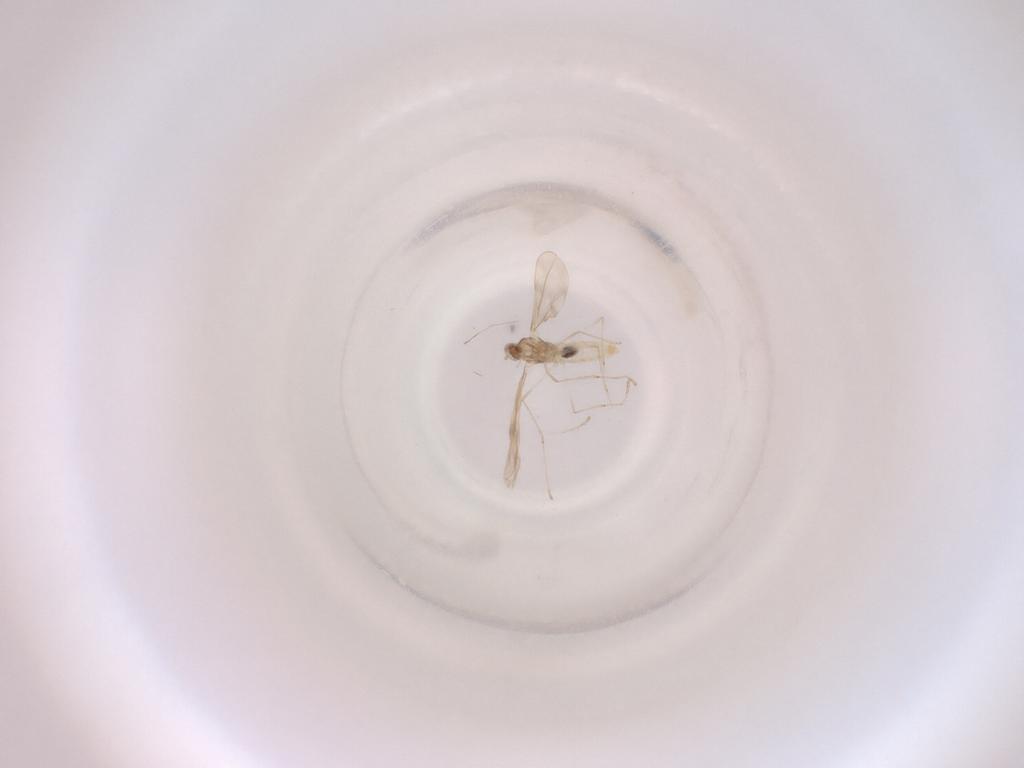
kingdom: Animalia
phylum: Arthropoda
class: Insecta
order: Diptera
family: Cecidomyiidae
